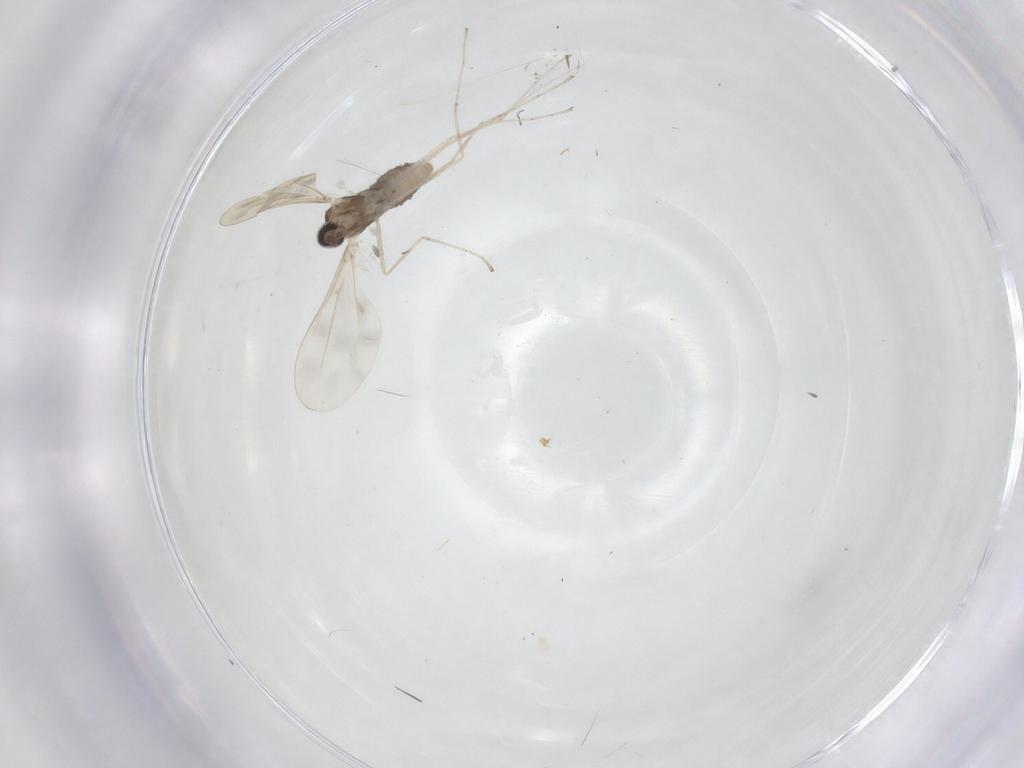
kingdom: Animalia
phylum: Arthropoda
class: Insecta
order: Diptera
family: Cecidomyiidae
